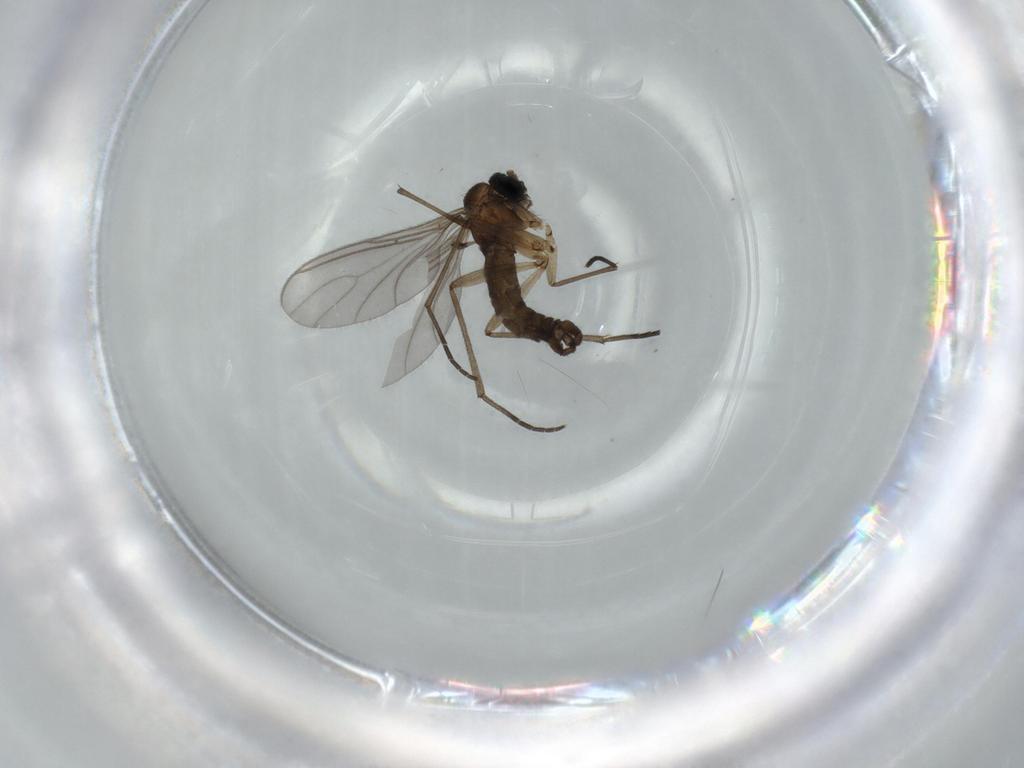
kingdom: Animalia
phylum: Arthropoda
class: Insecta
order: Diptera
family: Sciaridae
